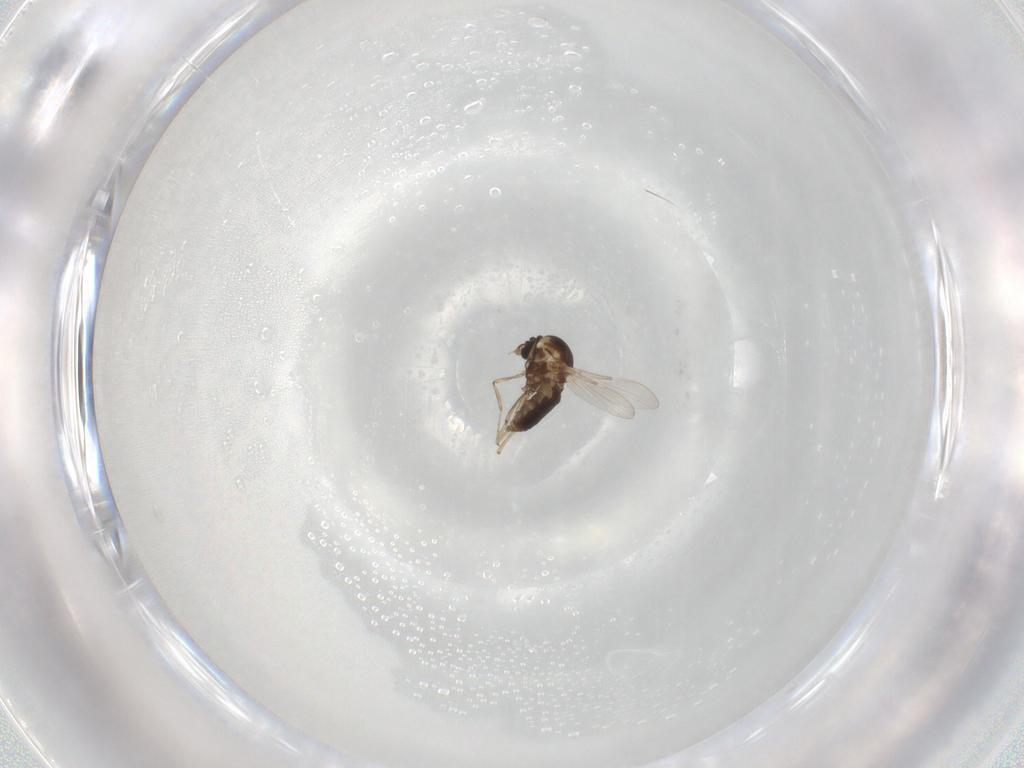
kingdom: Animalia
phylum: Arthropoda
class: Insecta
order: Diptera
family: Ceratopogonidae
